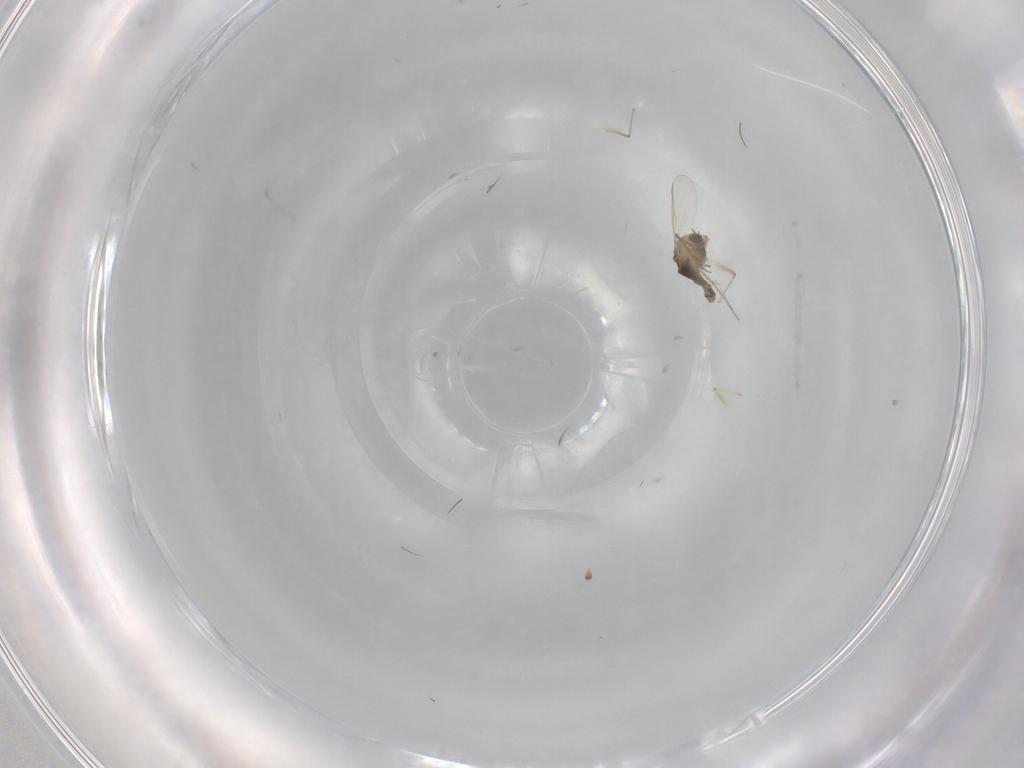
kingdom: Animalia
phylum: Arthropoda
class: Insecta
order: Diptera
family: Chironomidae
